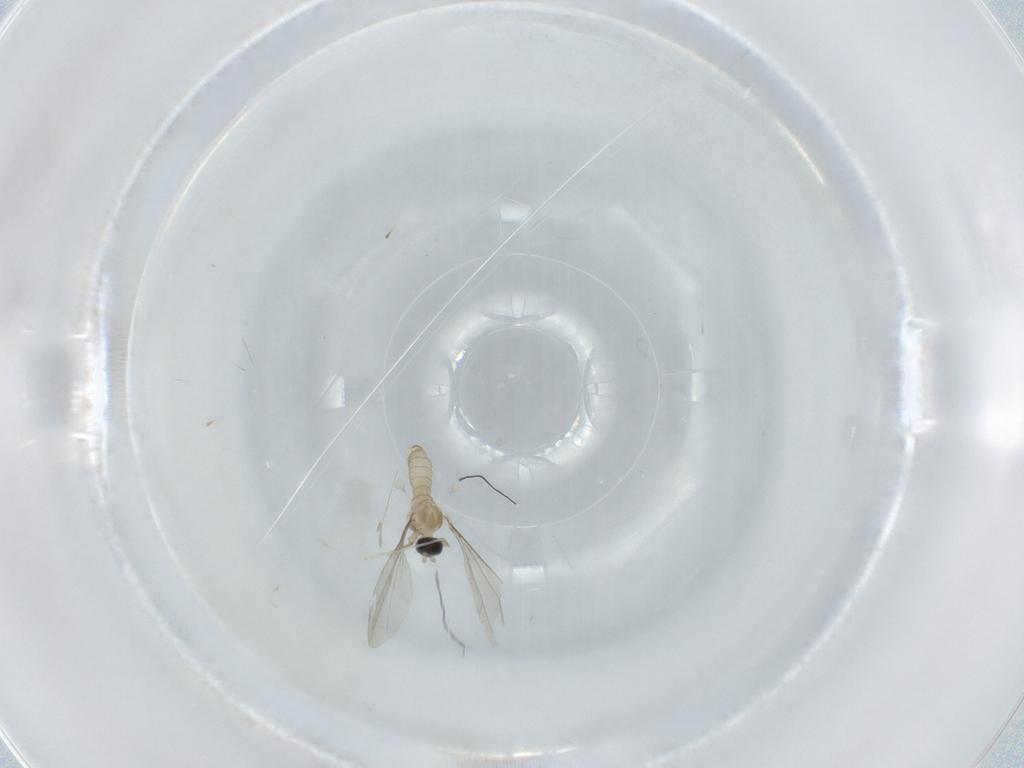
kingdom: Animalia
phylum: Arthropoda
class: Insecta
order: Diptera
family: Cecidomyiidae
